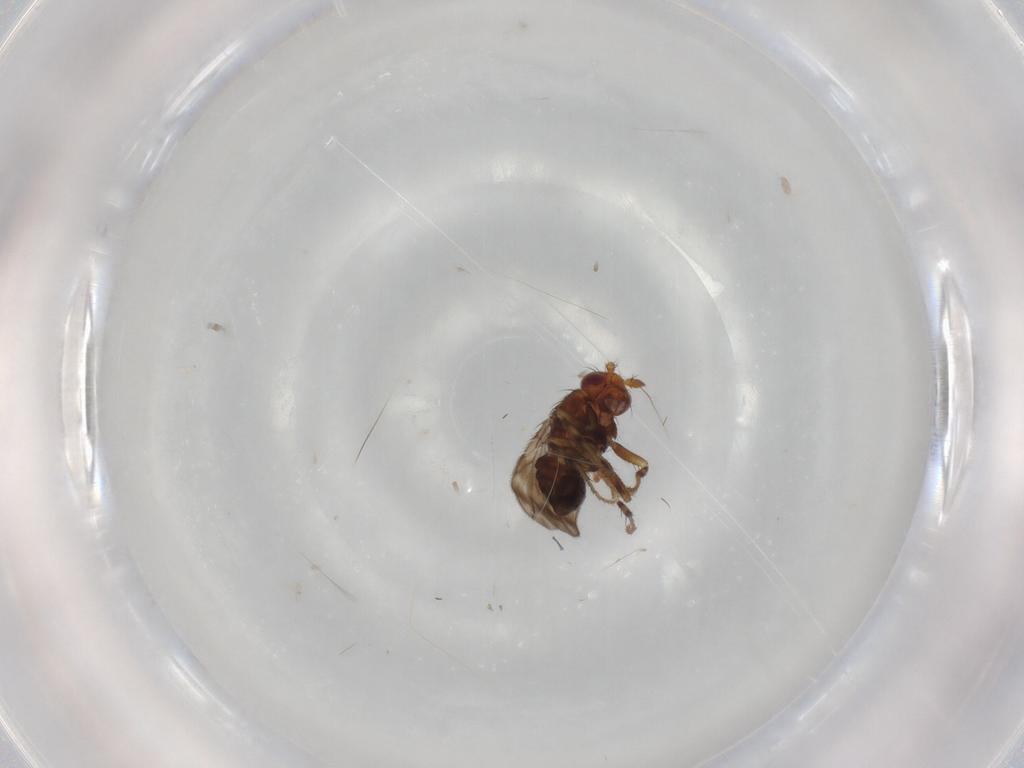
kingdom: Animalia
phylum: Arthropoda
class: Insecta
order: Diptera
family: Sphaeroceridae
